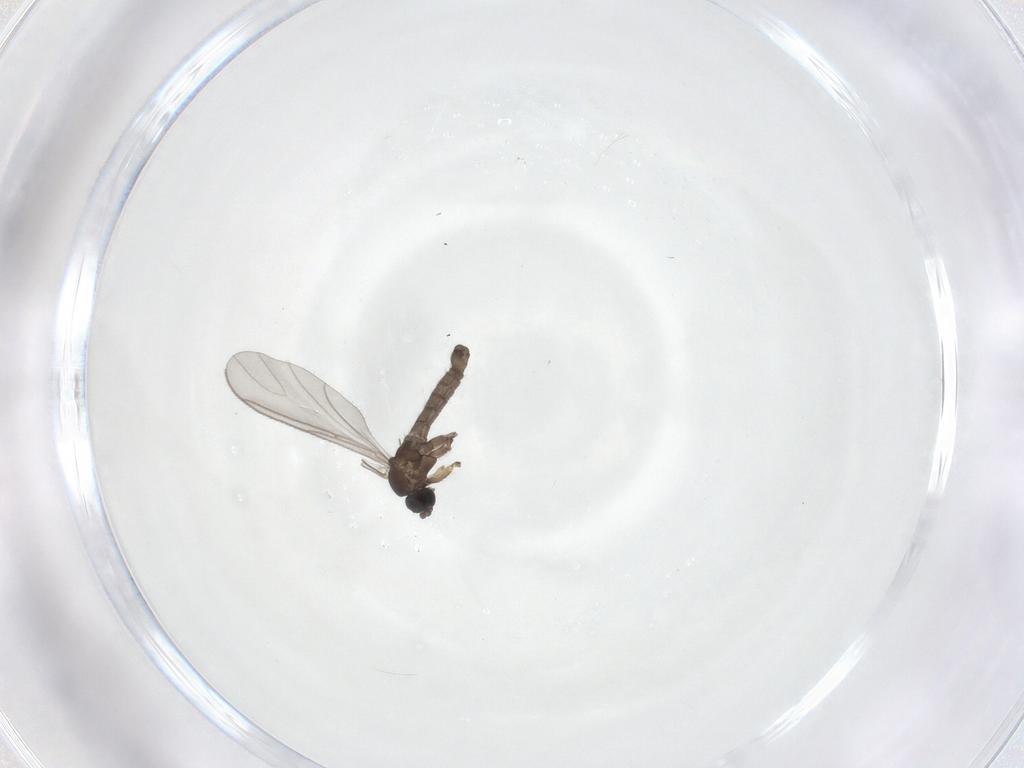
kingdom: Animalia
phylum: Arthropoda
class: Insecta
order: Diptera
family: Sciaridae
